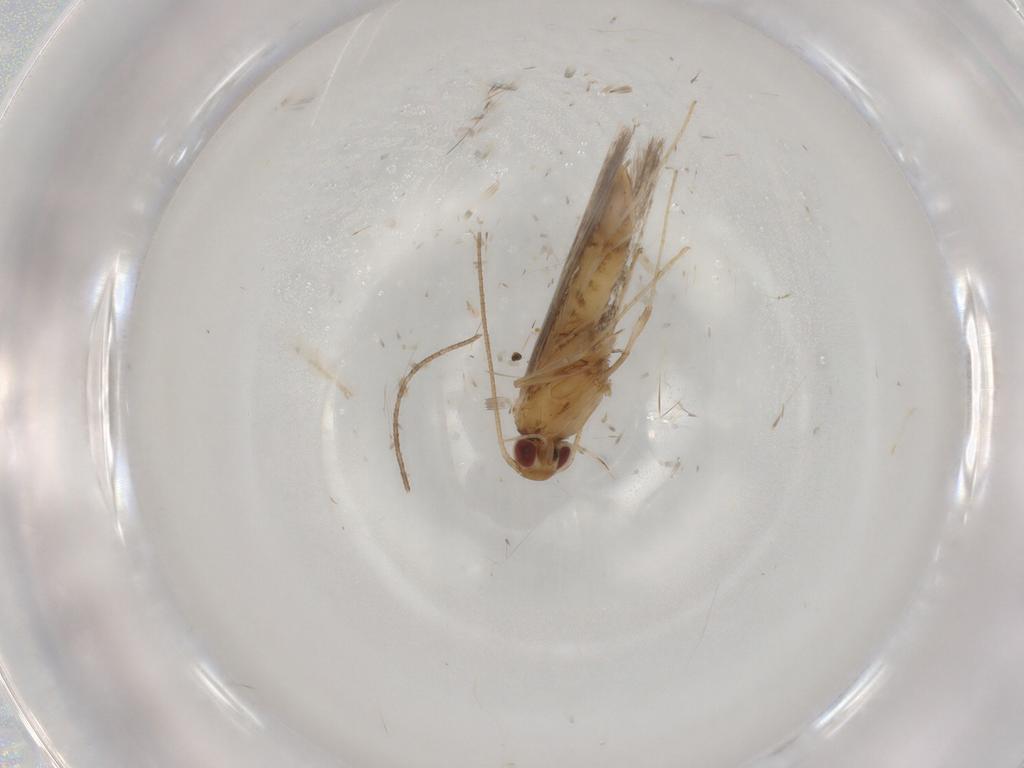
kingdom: Animalia
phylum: Arthropoda
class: Insecta
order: Lepidoptera
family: Gracillariidae
